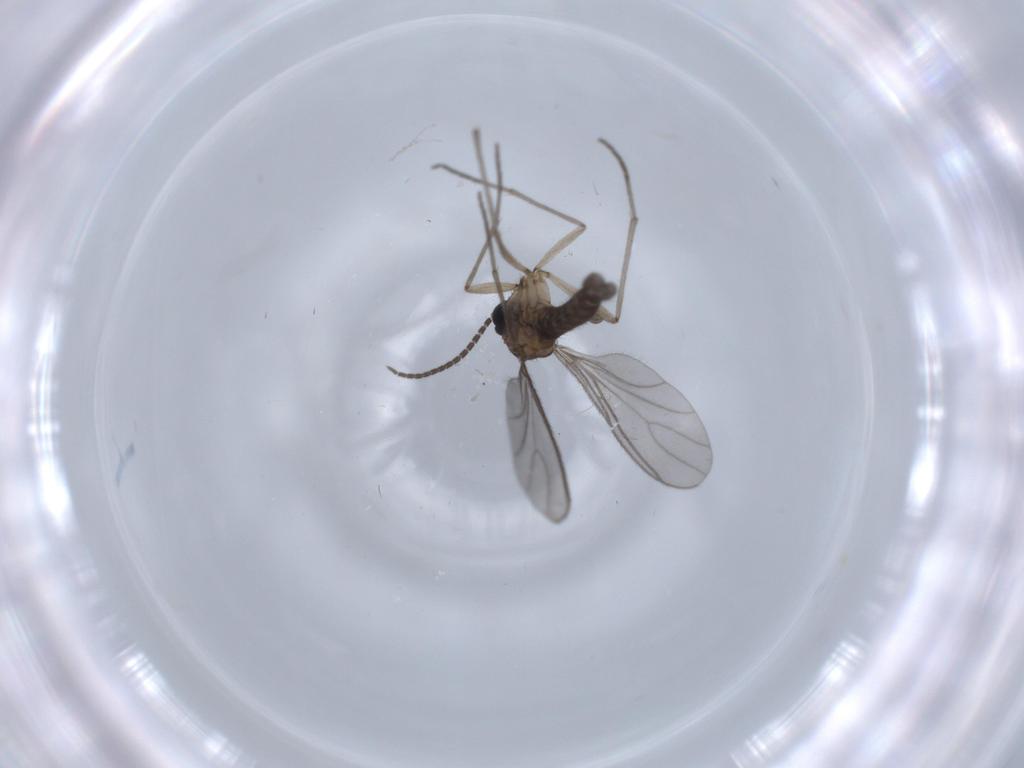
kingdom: Animalia
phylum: Arthropoda
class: Insecta
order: Diptera
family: Sciaridae
